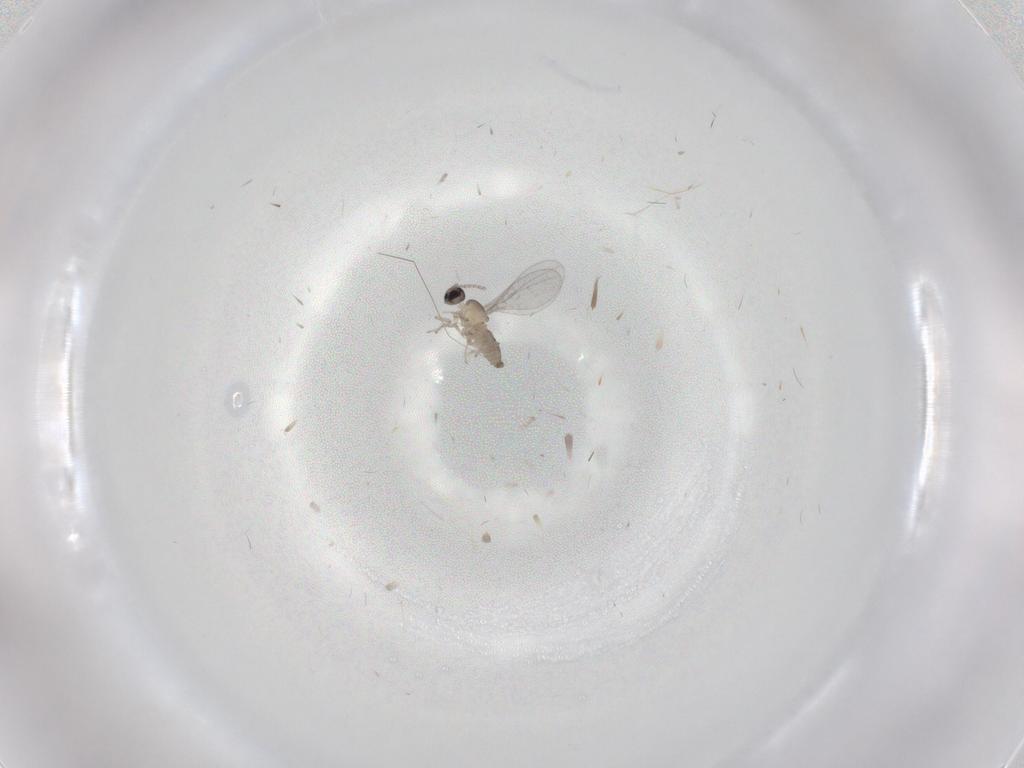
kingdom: Animalia
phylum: Arthropoda
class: Insecta
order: Diptera
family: Cecidomyiidae
